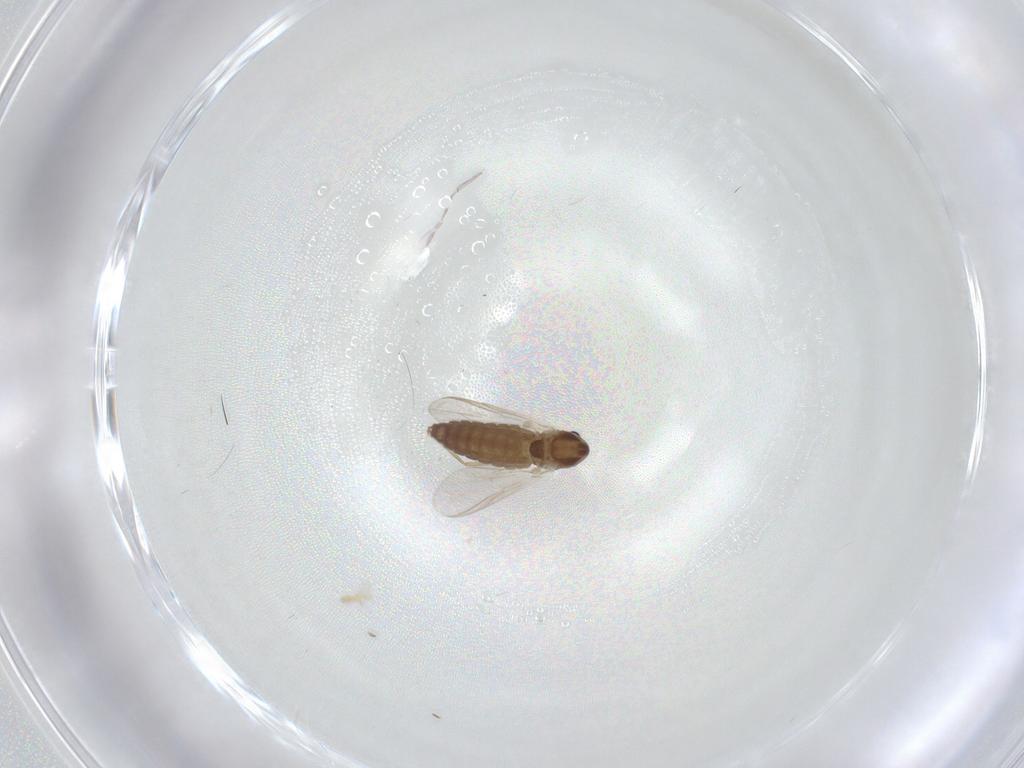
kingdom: Animalia
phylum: Arthropoda
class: Insecta
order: Diptera
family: Chironomidae
